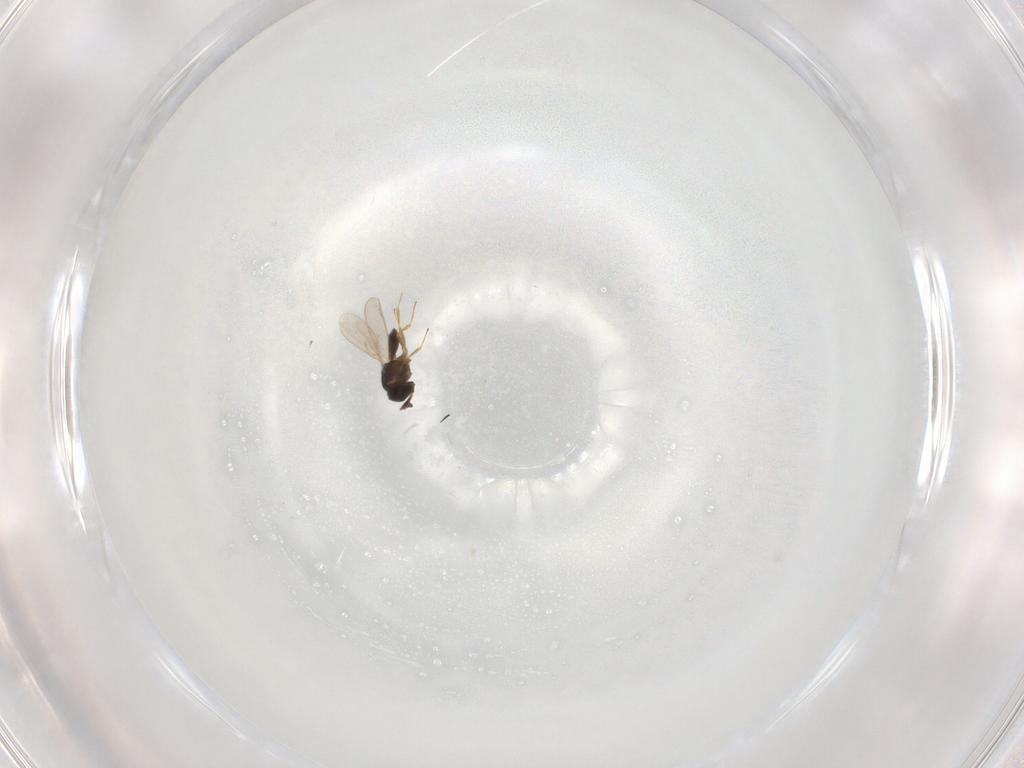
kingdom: Animalia
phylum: Arthropoda
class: Insecta
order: Hymenoptera
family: Scelionidae
